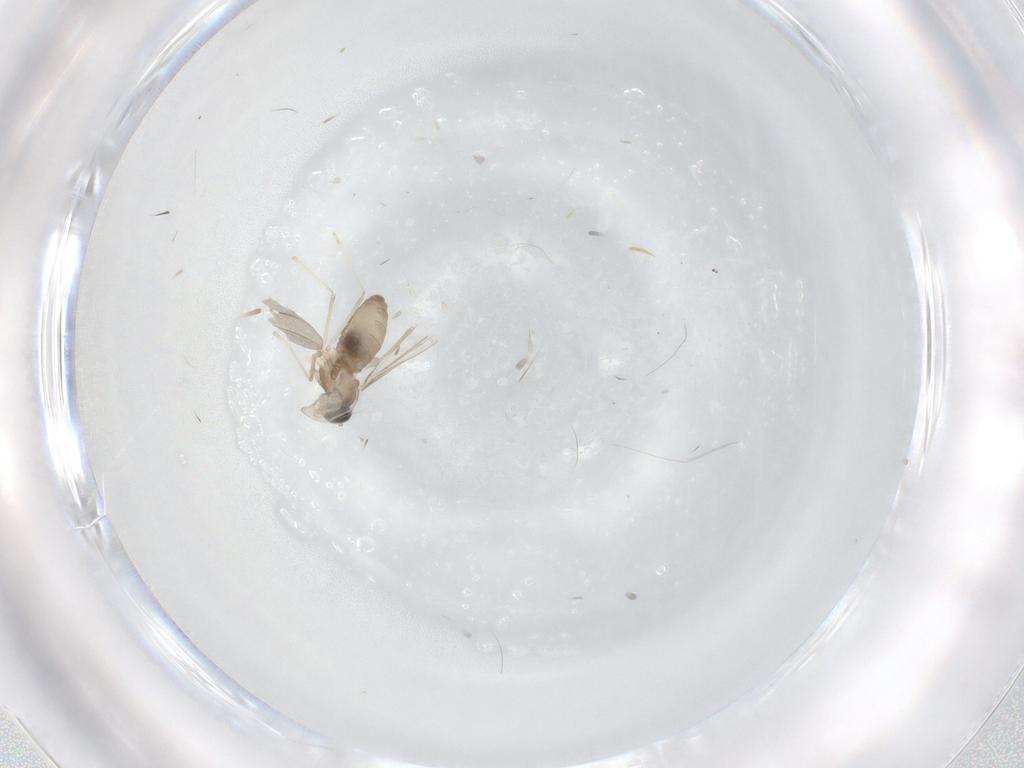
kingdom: Animalia
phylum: Arthropoda
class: Insecta
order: Diptera
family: Cecidomyiidae
